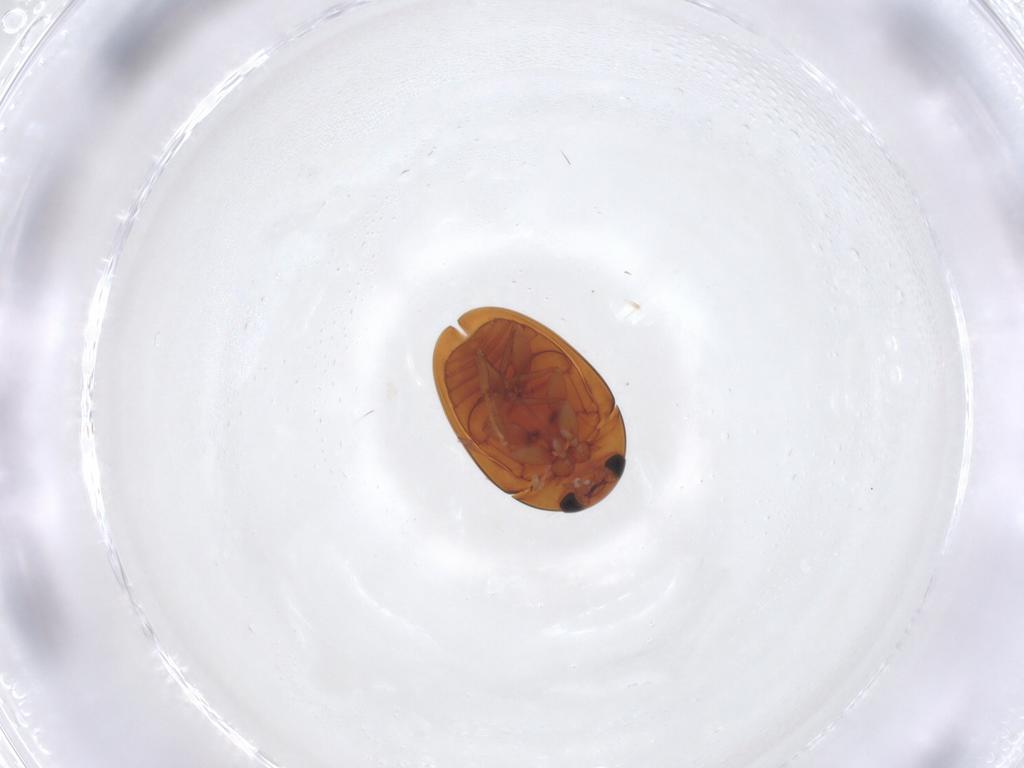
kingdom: Animalia
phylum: Arthropoda
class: Insecta
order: Coleoptera
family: Phalacridae
